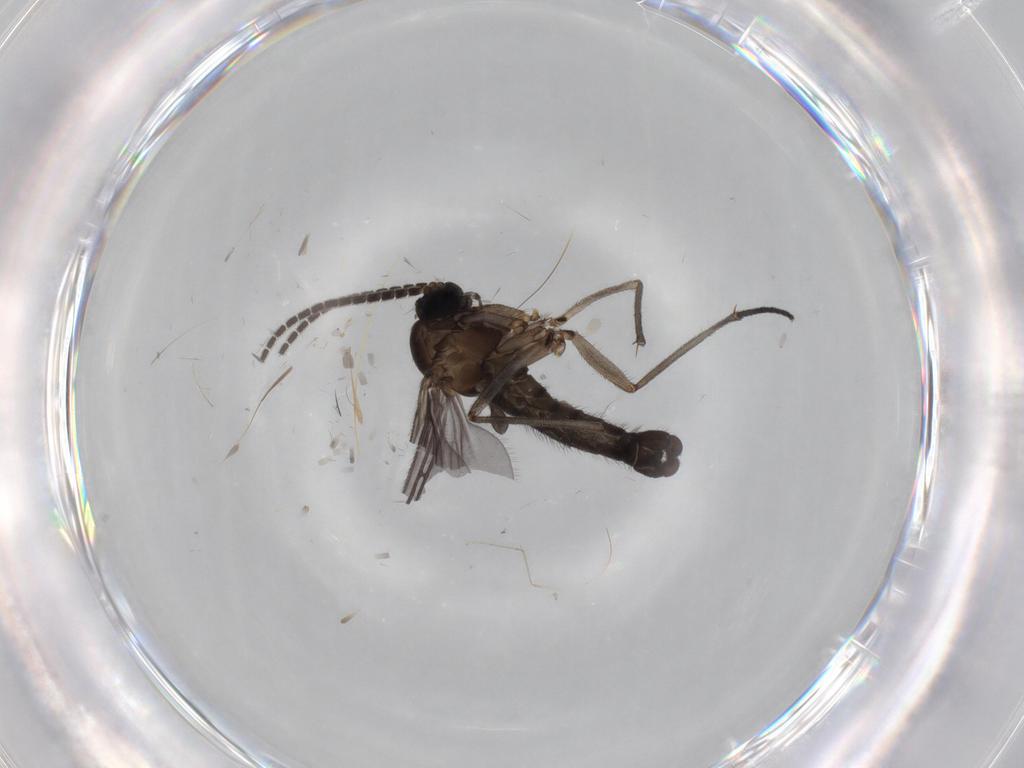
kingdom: Animalia
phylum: Arthropoda
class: Insecta
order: Diptera
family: Sciaridae
